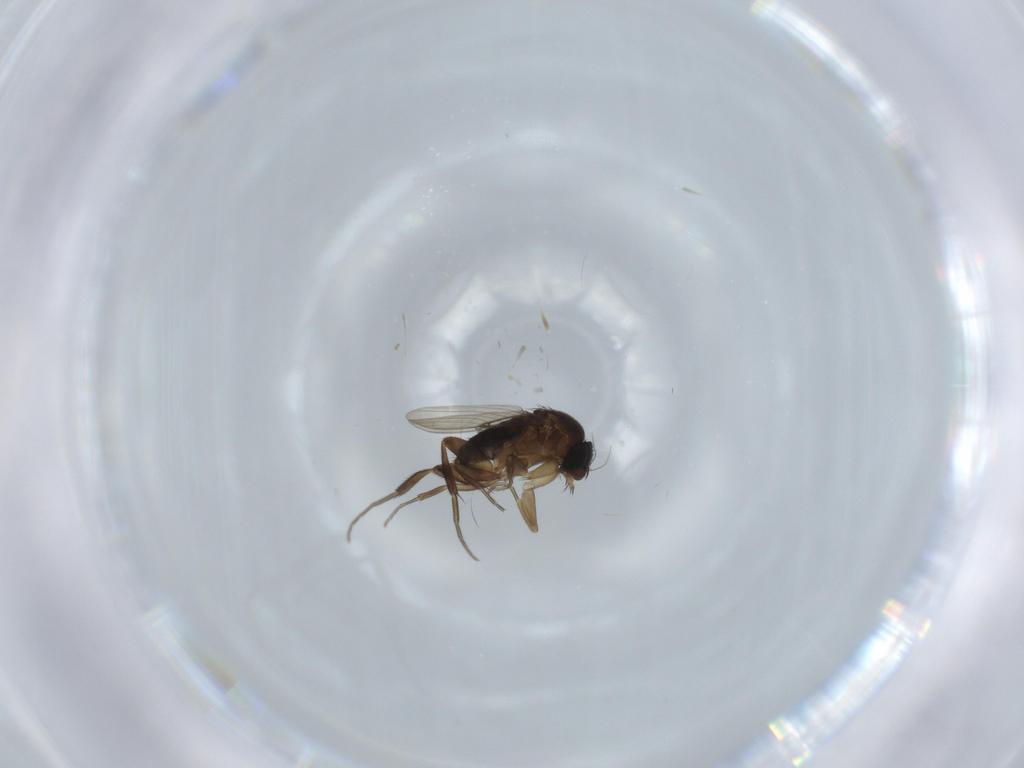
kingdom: Animalia
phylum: Arthropoda
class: Insecta
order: Diptera
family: Phoridae
